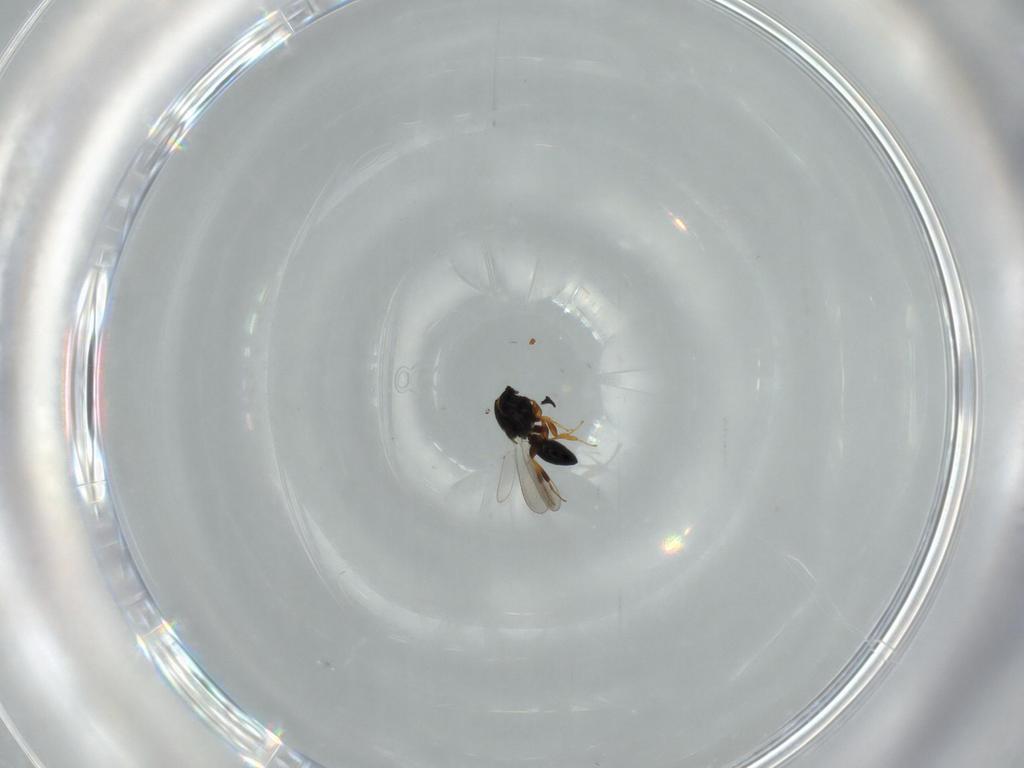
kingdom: Animalia
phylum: Arthropoda
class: Insecta
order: Hymenoptera
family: Platygastridae
